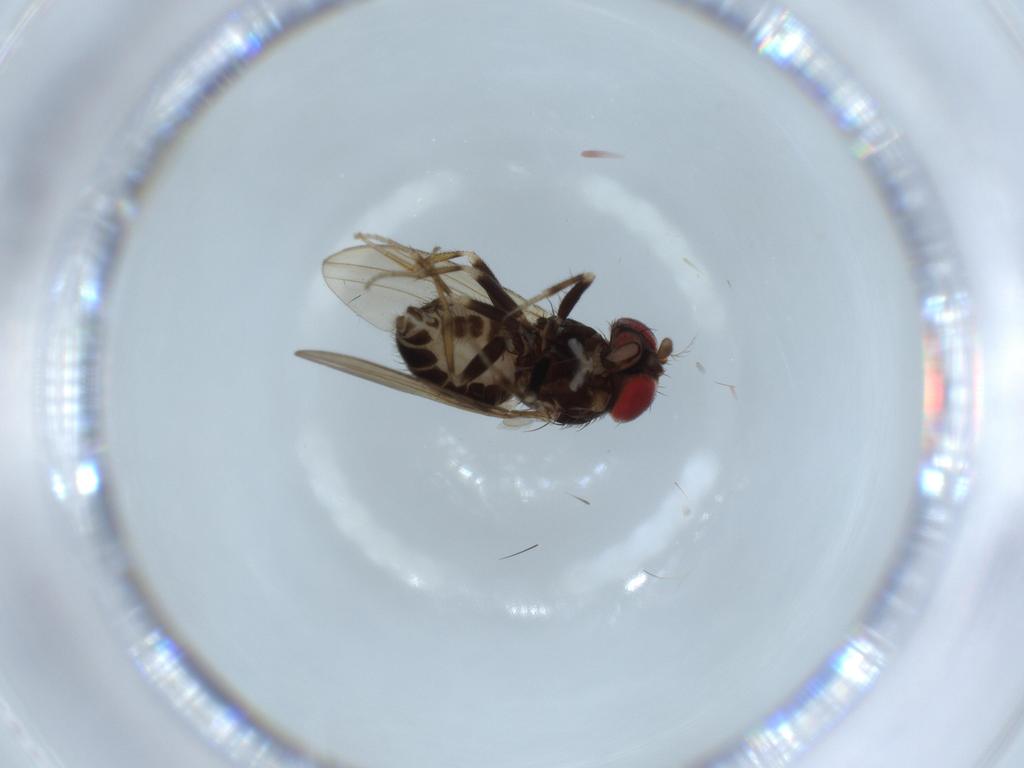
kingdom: Animalia
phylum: Arthropoda
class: Insecta
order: Diptera
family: Drosophilidae
